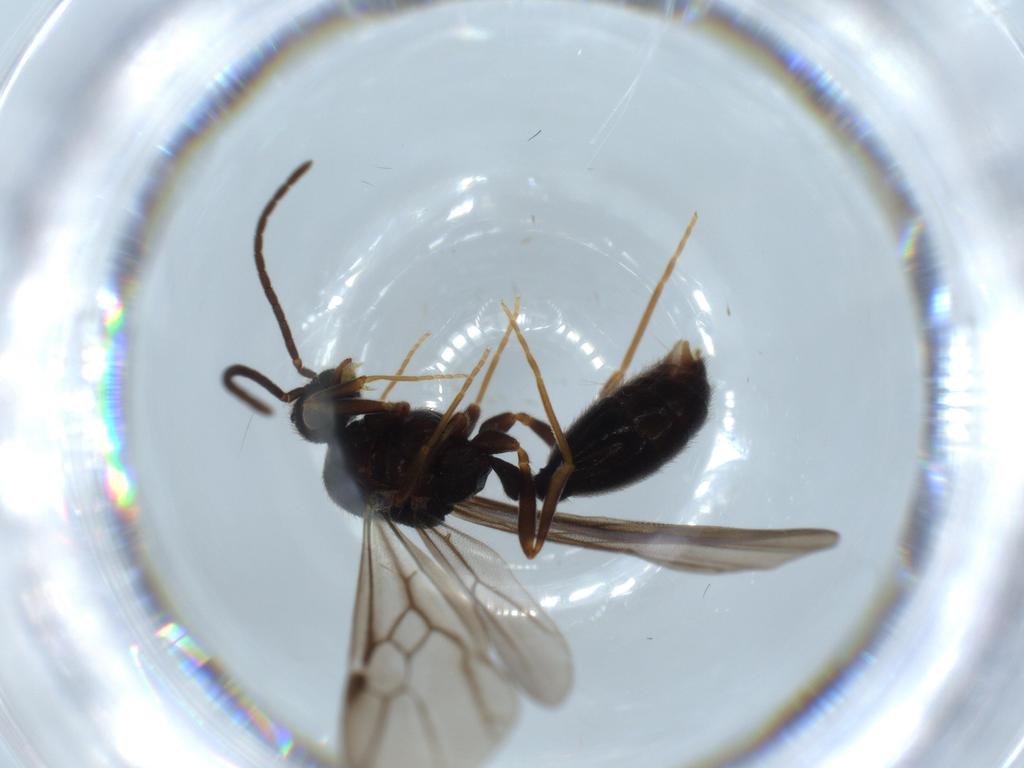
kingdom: Animalia
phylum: Arthropoda
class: Insecta
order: Hymenoptera
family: Formicidae
